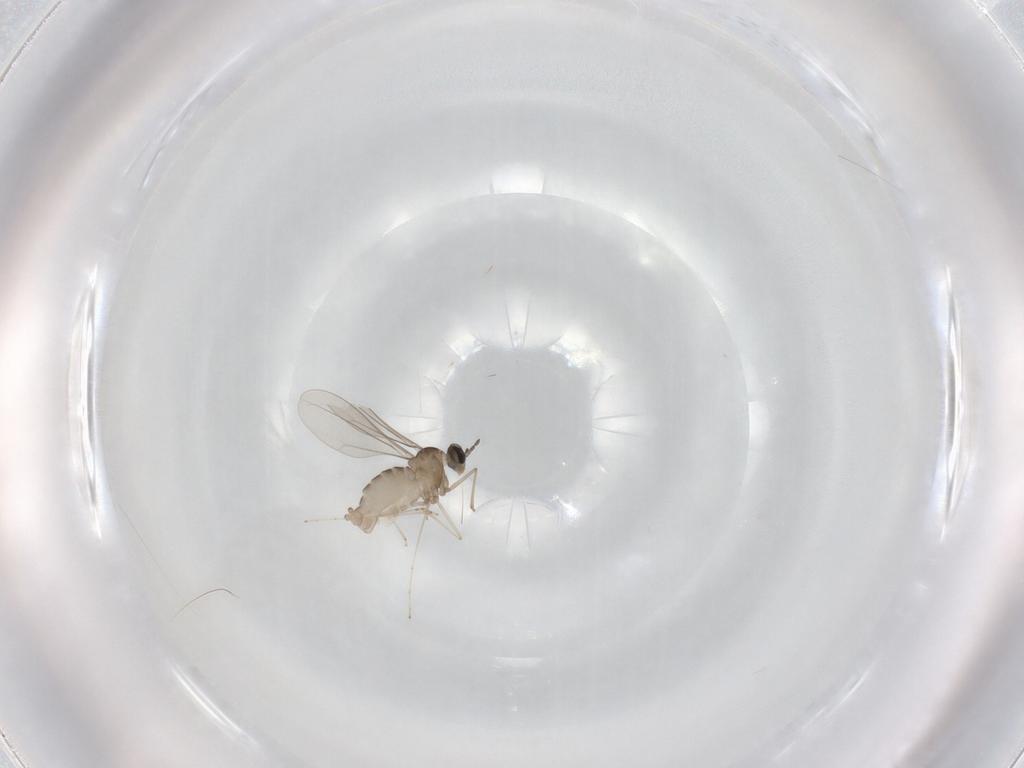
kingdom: Animalia
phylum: Arthropoda
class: Insecta
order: Diptera
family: Cecidomyiidae
